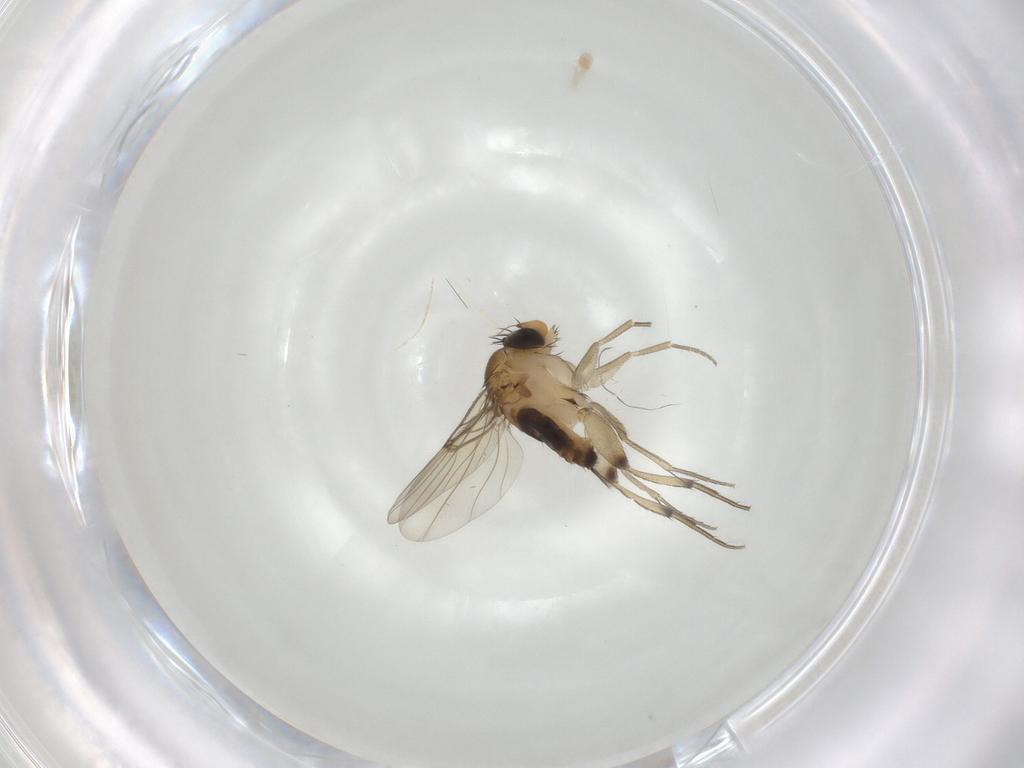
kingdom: Animalia
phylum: Arthropoda
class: Insecta
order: Diptera
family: Phoridae
